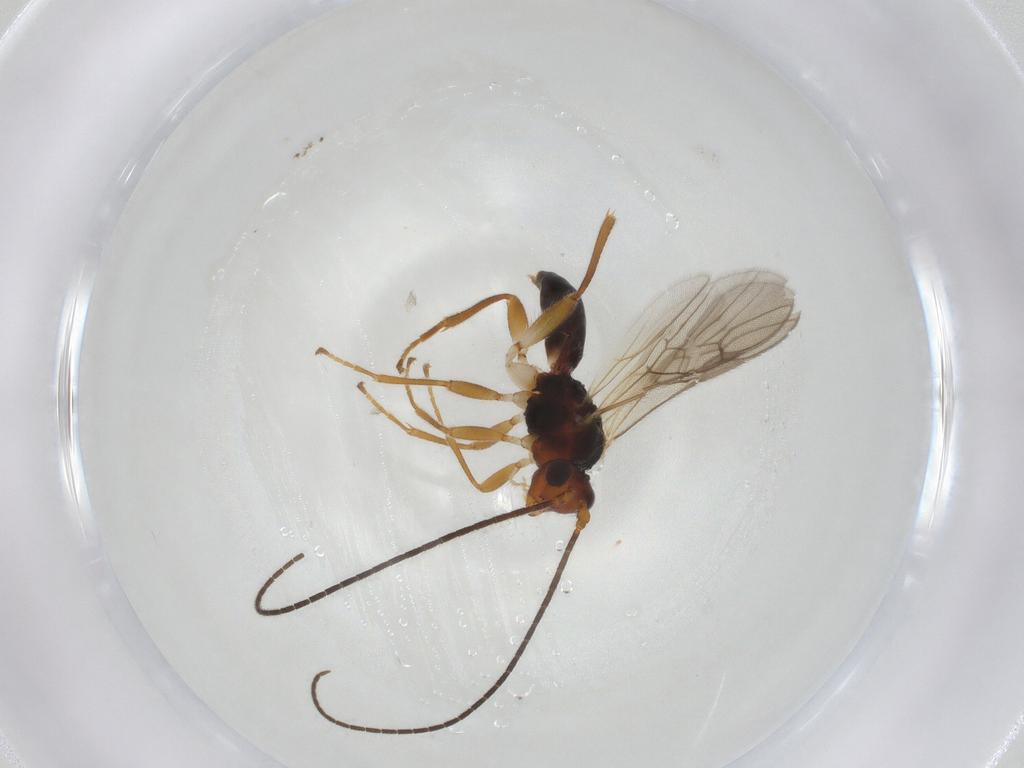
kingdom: Animalia
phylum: Arthropoda
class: Insecta
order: Hymenoptera
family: Braconidae
